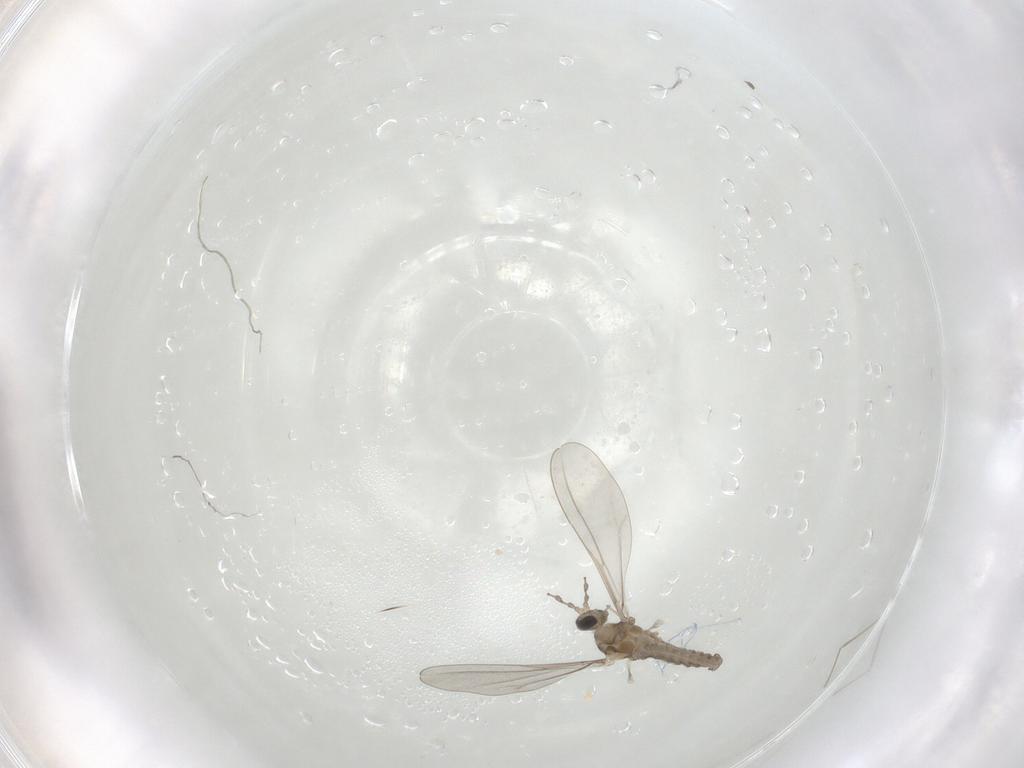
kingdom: Animalia
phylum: Arthropoda
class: Insecta
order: Diptera
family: Cecidomyiidae
